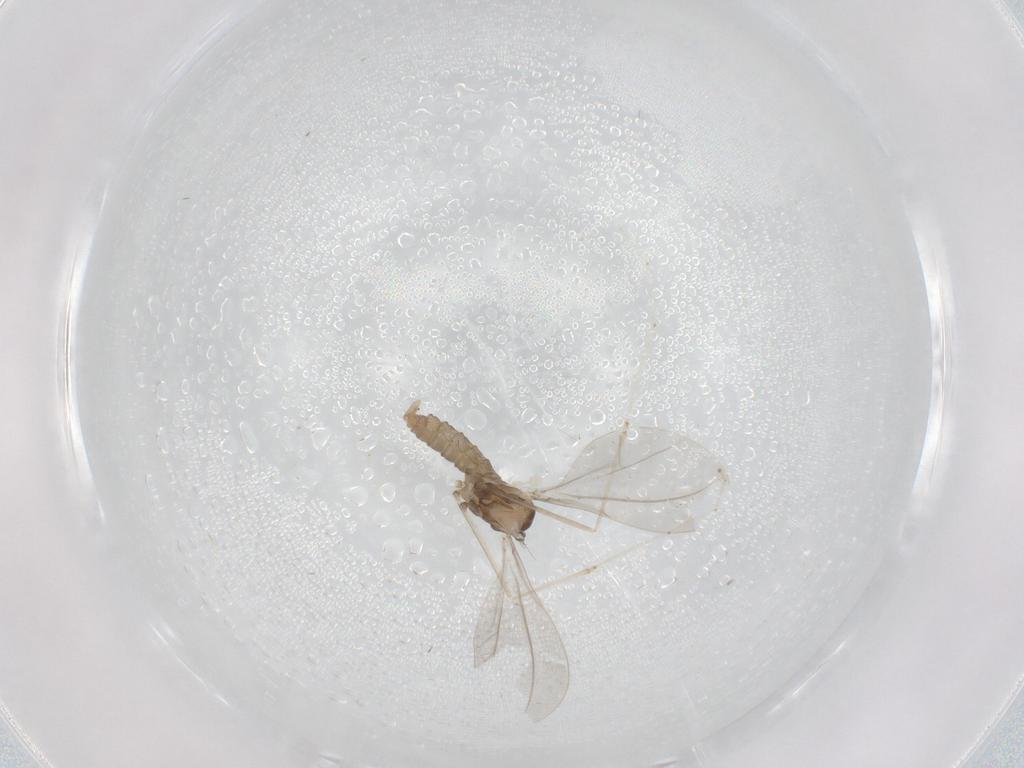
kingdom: Animalia
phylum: Arthropoda
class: Insecta
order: Diptera
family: Cecidomyiidae
